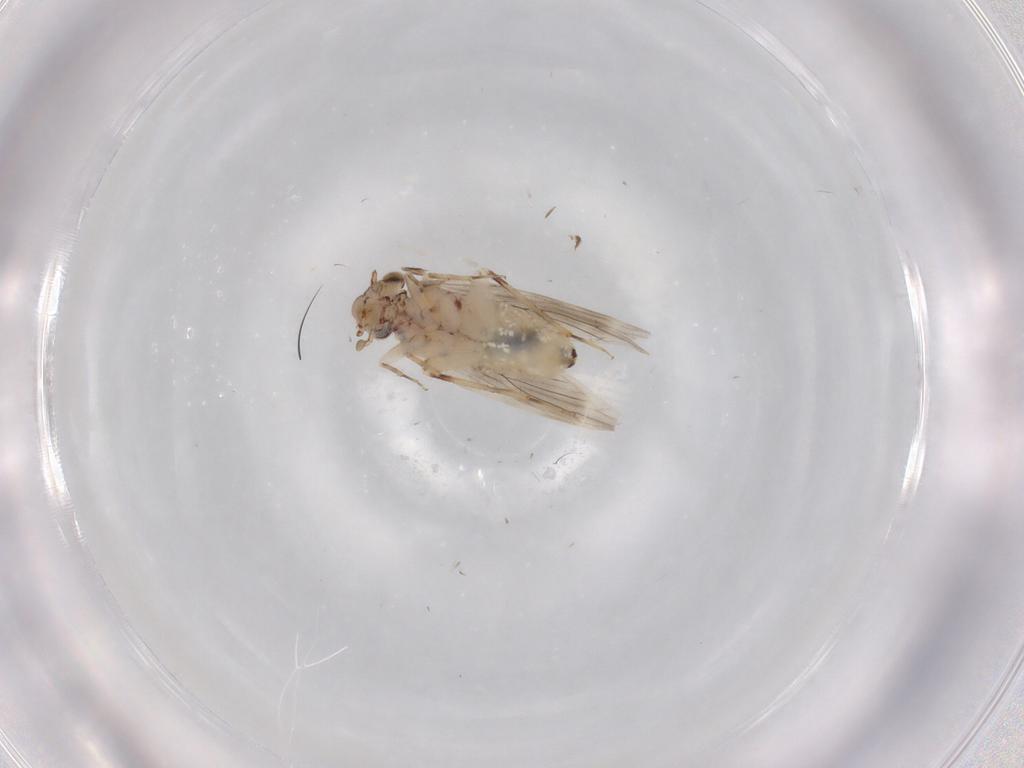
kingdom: Animalia
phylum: Arthropoda
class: Insecta
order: Psocodea
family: Lepidopsocidae
